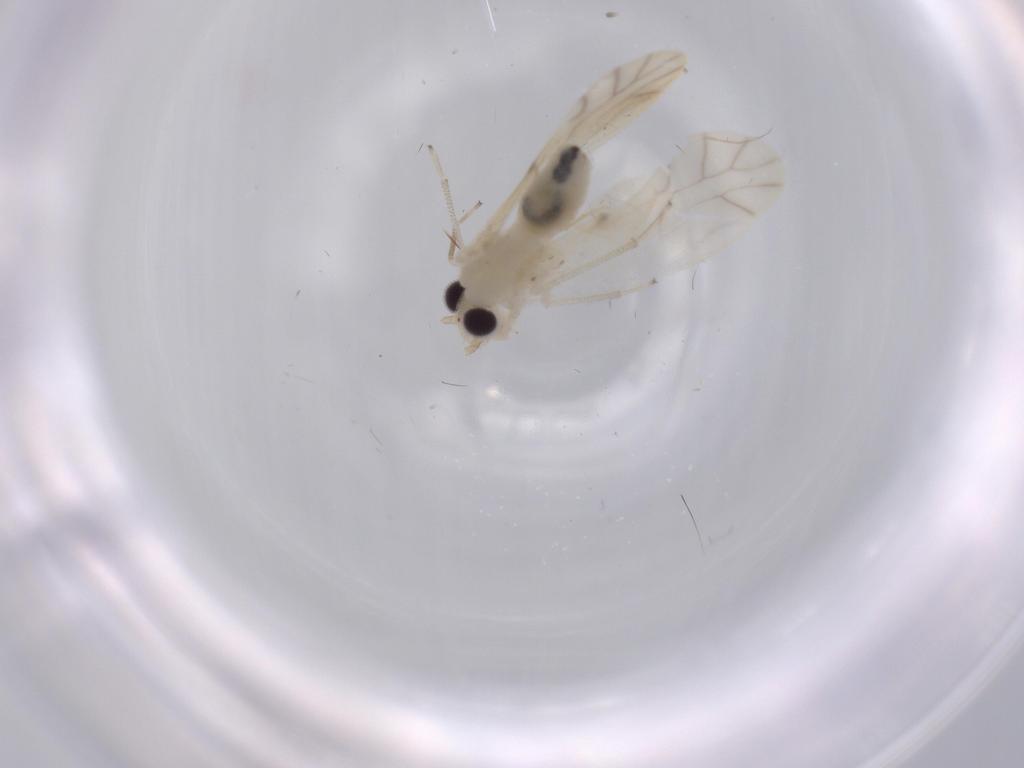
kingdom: Animalia
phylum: Arthropoda
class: Insecta
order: Psocodea
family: Caeciliusidae
